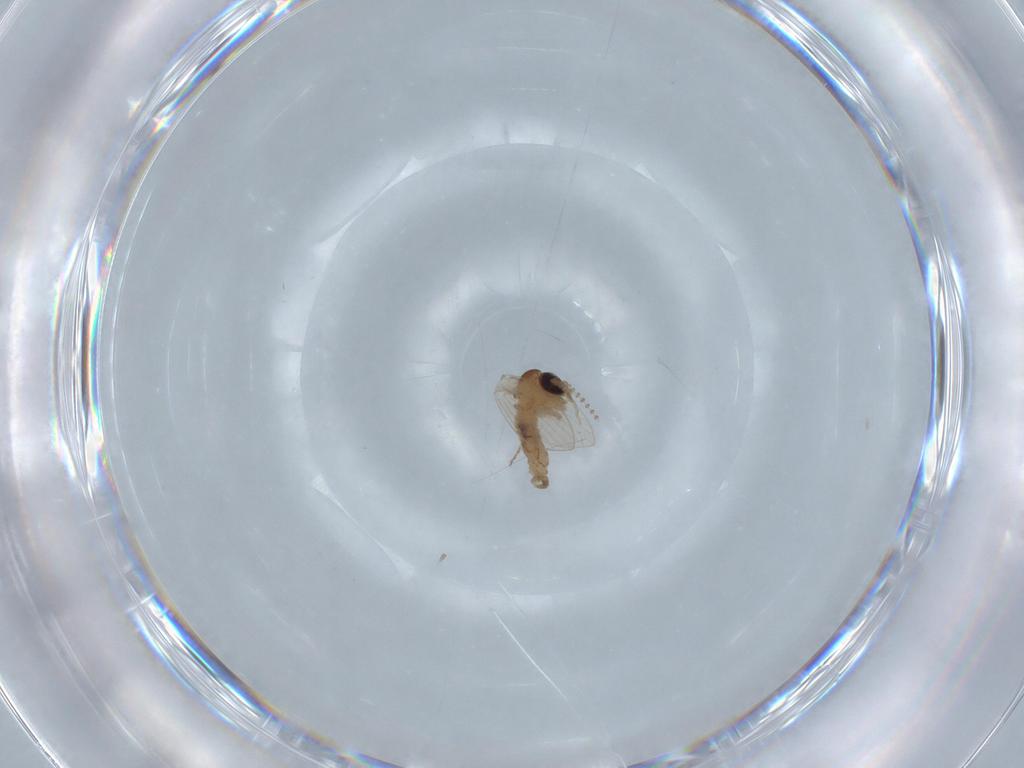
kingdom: Animalia
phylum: Arthropoda
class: Insecta
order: Diptera
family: Psychodidae
